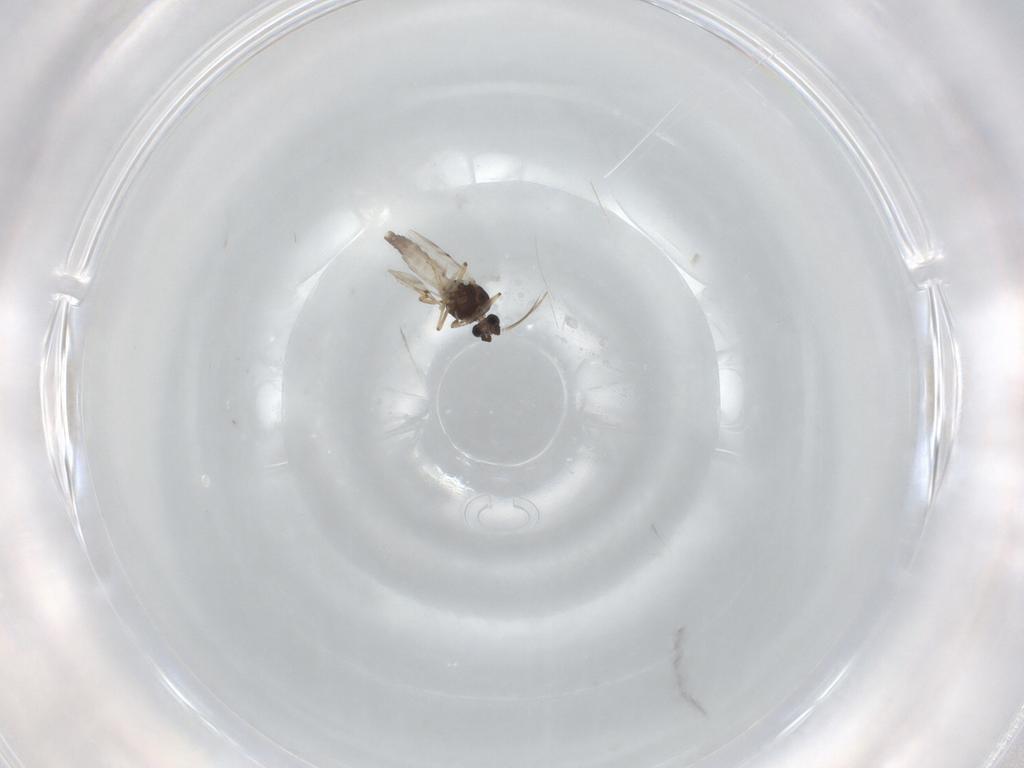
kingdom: Animalia
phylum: Arthropoda
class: Insecta
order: Diptera
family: Cecidomyiidae
